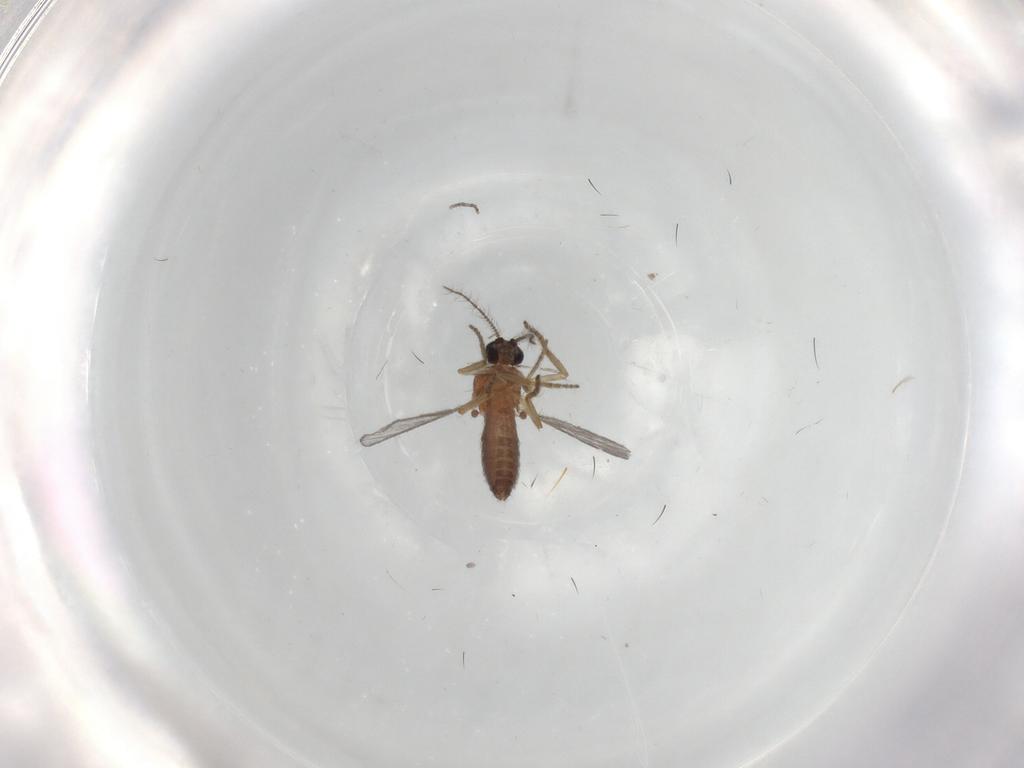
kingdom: Animalia
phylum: Arthropoda
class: Insecta
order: Diptera
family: Ceratopogonidae
